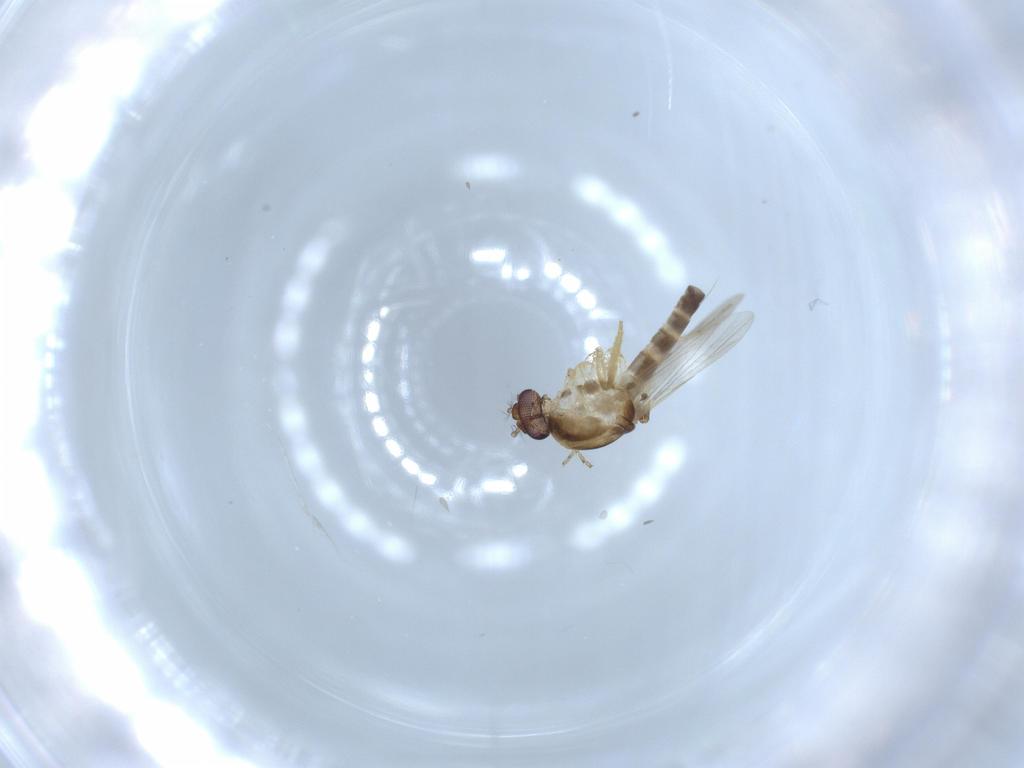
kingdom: Animalia
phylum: Arthropoda
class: Insecta
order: Diptera
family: Ceratopogonidae
